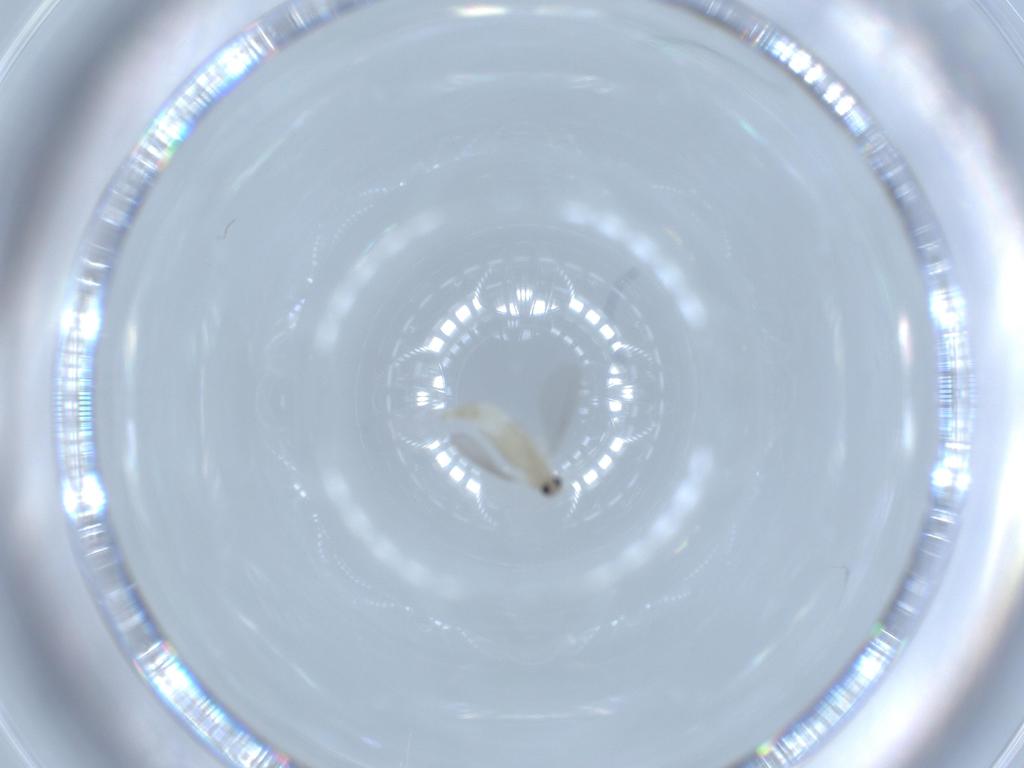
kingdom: Animalia
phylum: Arthropoda
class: Insecta
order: Diptera
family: Cecidomyiidae
